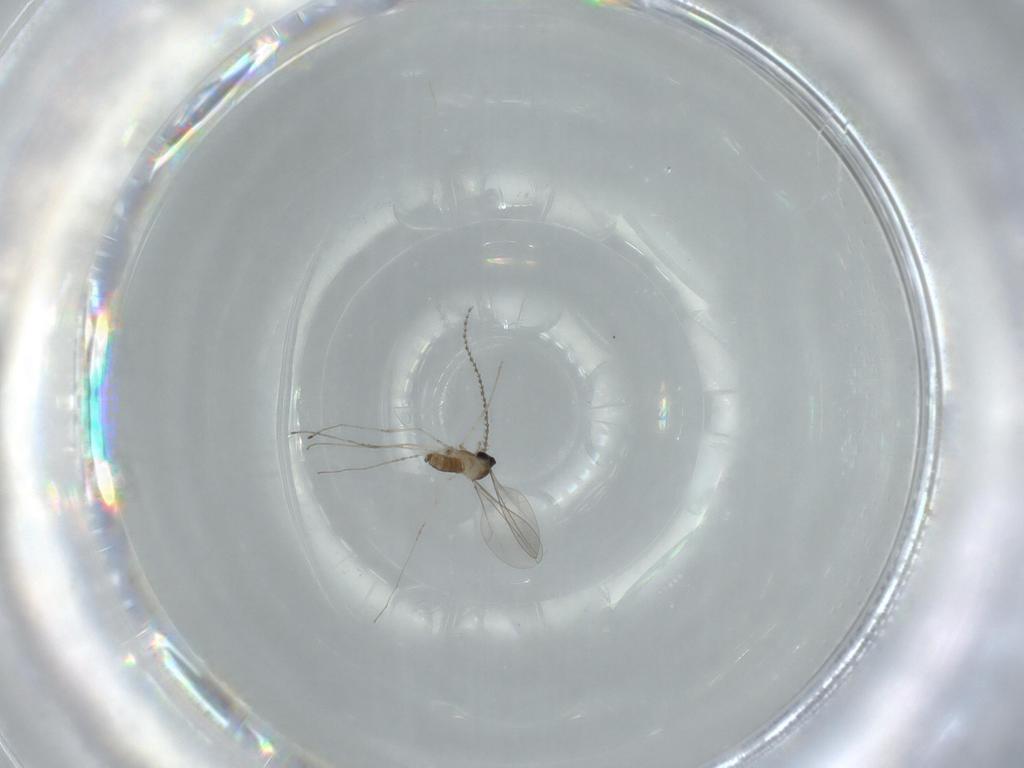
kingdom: Animalia
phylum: Arthropoda
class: Insecta
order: Diptera
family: Cecidomyiidae
